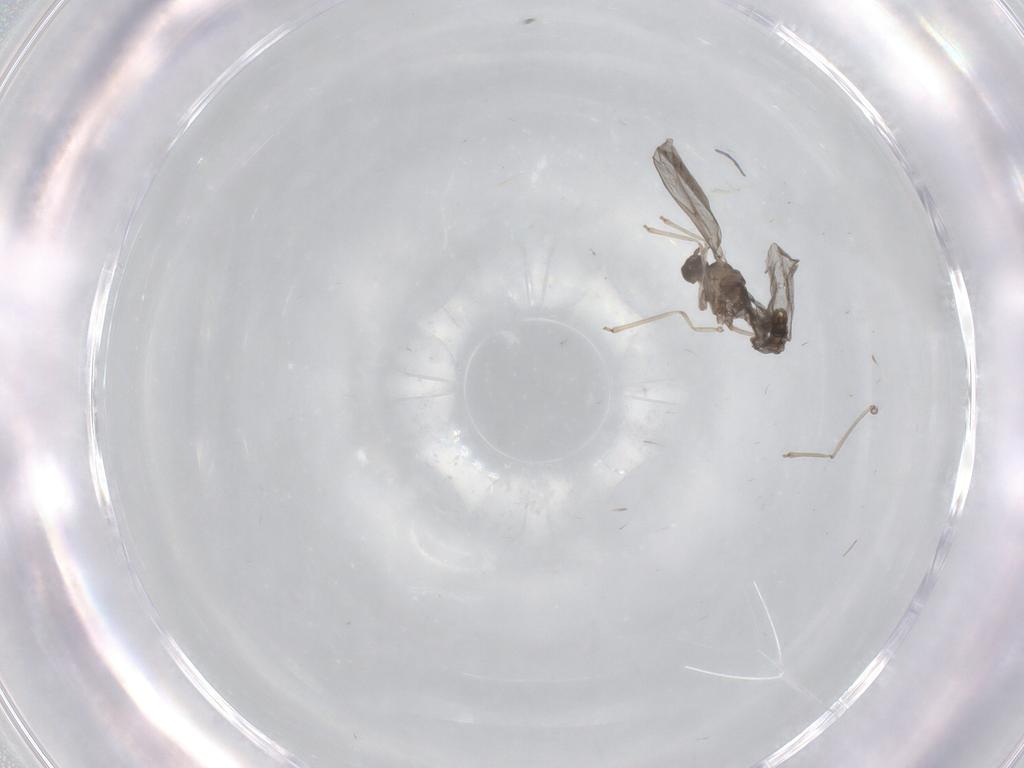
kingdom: Animalia
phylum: Arthropoda
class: Insecta
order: Diptera
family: Cecidomyiidae
